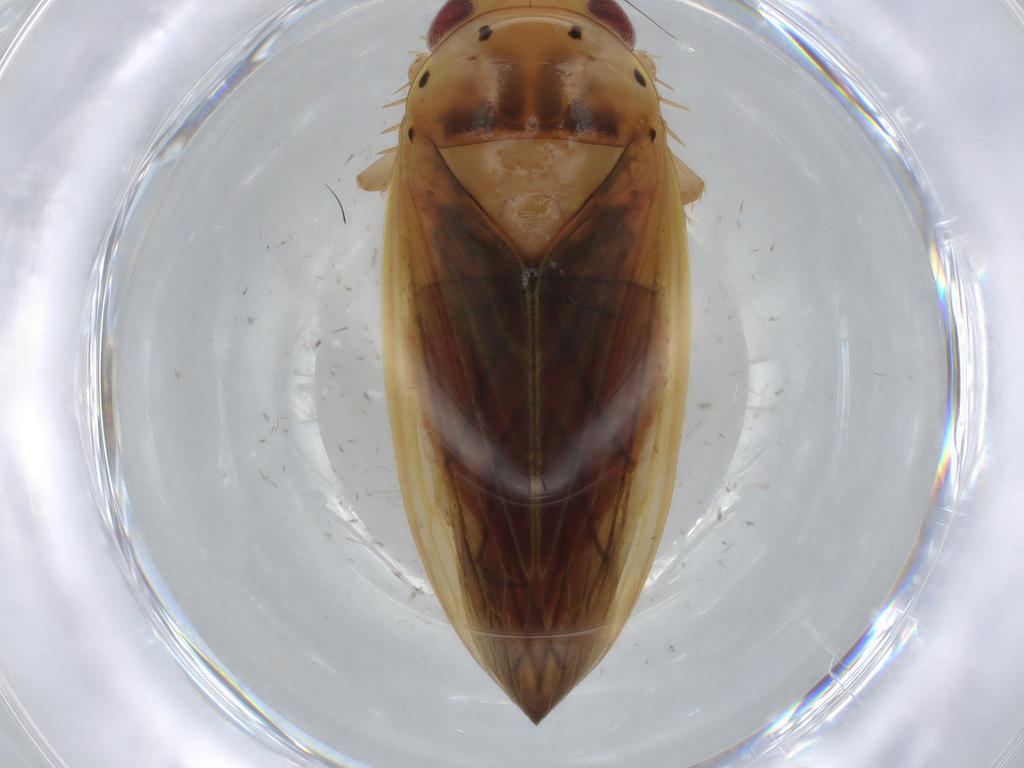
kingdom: Animalia
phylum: Arthropoda
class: Insecta
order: Hemiptera
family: Cicadellidae
